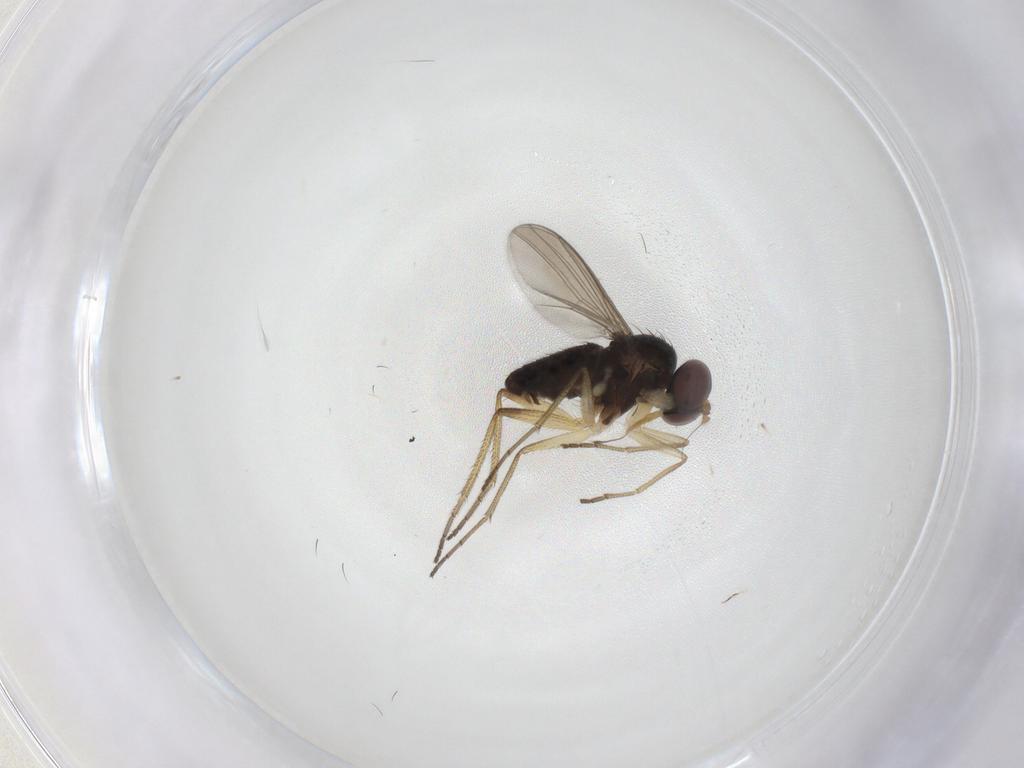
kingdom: Animalia
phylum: Arthropoda
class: Insecta
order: Diptera
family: Dolichopodidae
